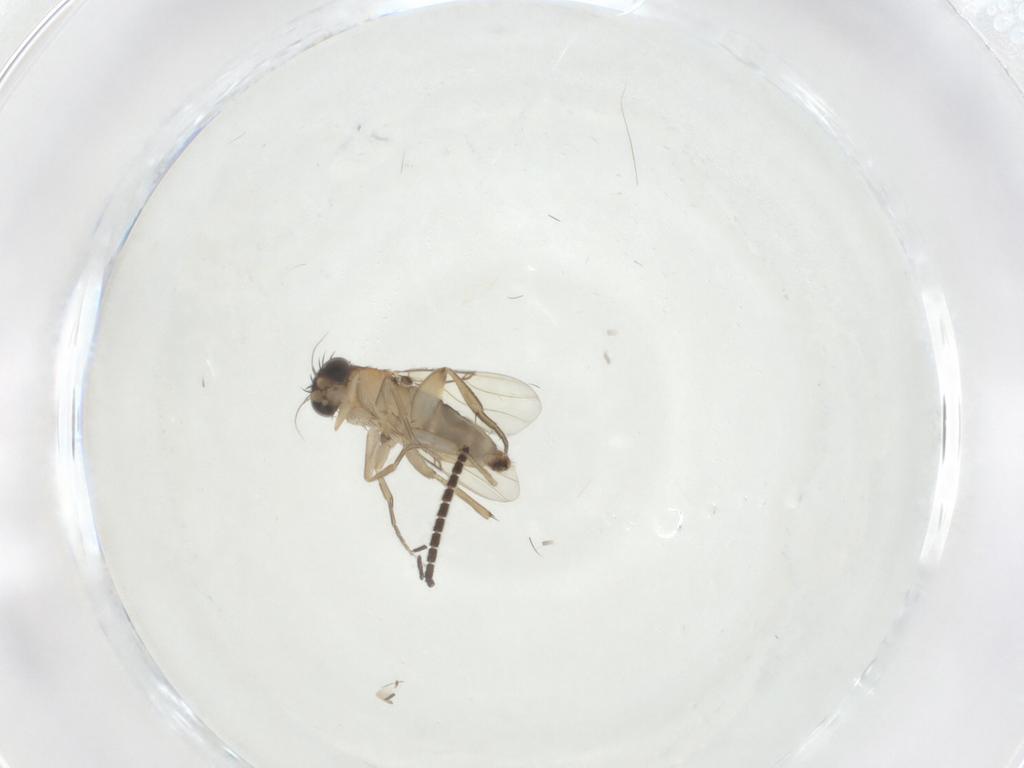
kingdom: Animalia
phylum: Arthropoda
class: Insecta
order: Diptera
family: Phoridae
